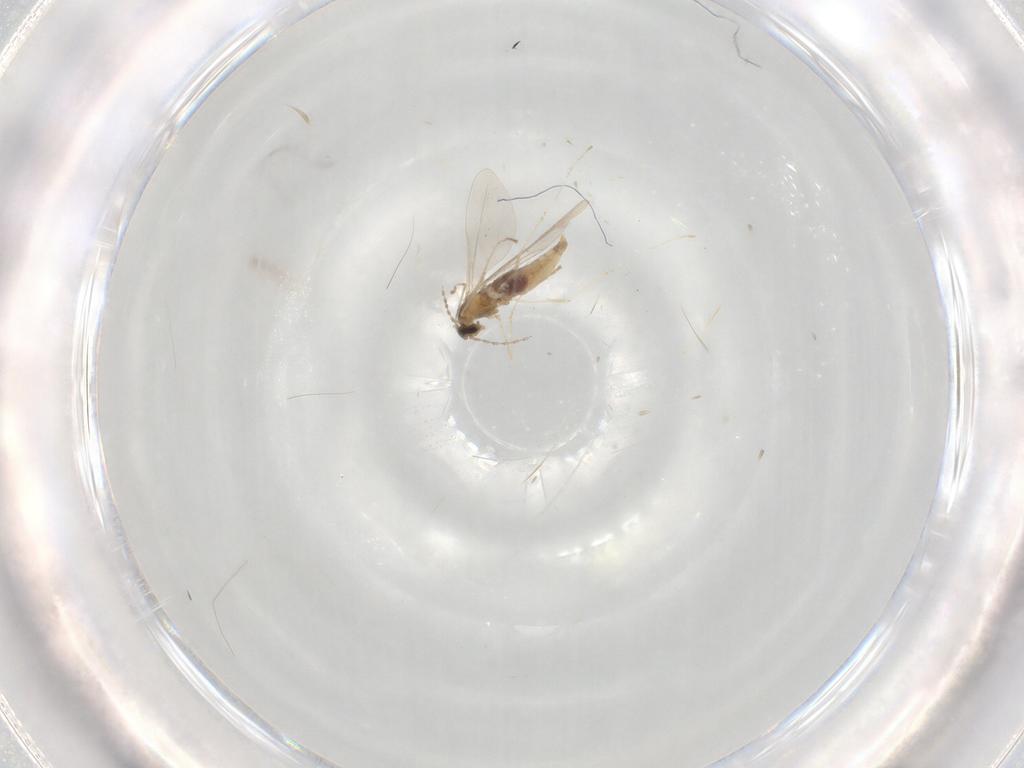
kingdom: Animalia
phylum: Arthropoda
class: Insecta
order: Diptera
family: Cecidomyiidae
